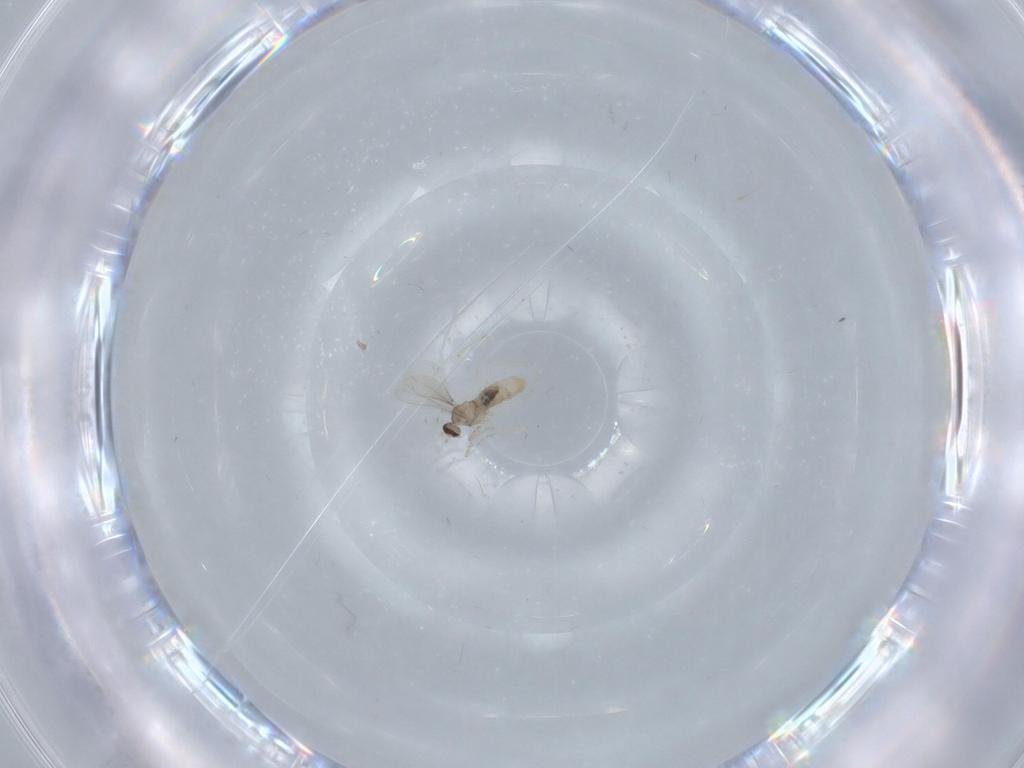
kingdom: Animalia
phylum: Arthropoda
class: Insecta
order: Diptera
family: Cecidomyiidae
